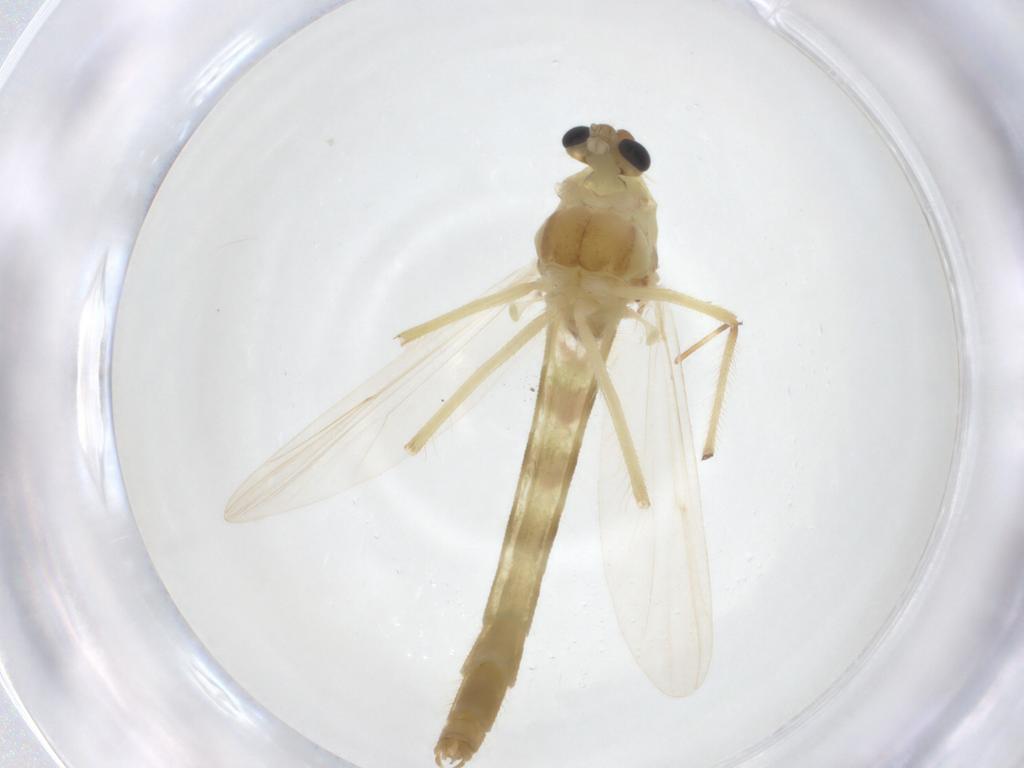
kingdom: Animalia
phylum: Arthropoda
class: Insecta
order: Diptera
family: Chironomidae
